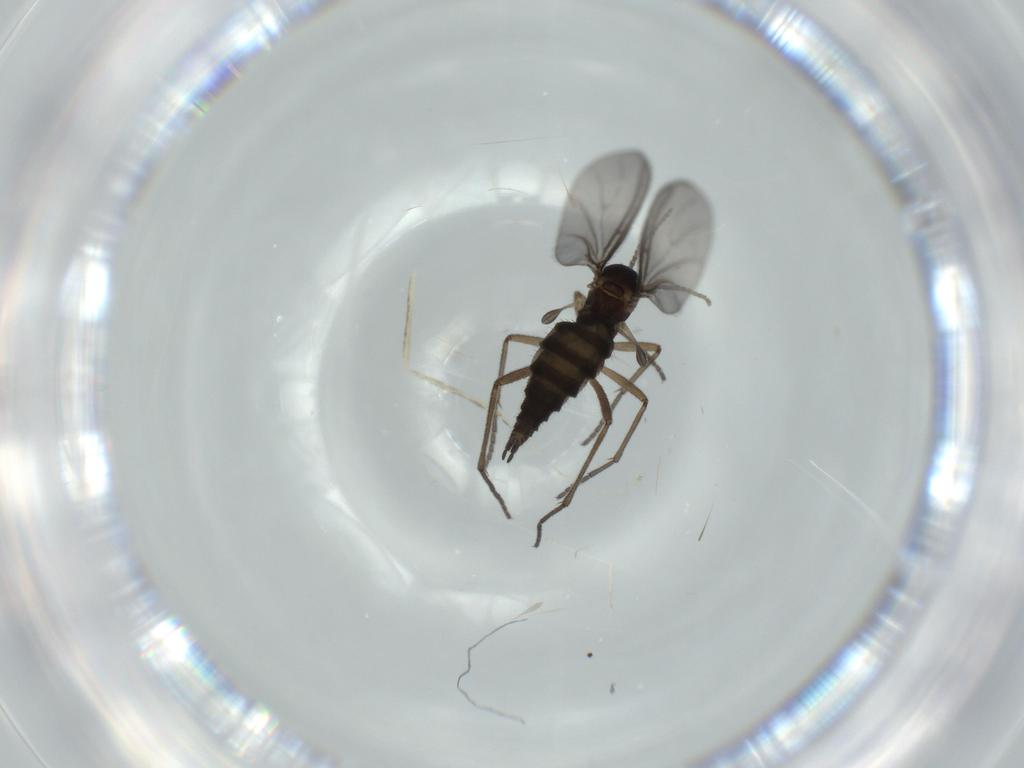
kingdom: Animalia
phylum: Arthropoda
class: Insecta
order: Diptera
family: Sciaridae
